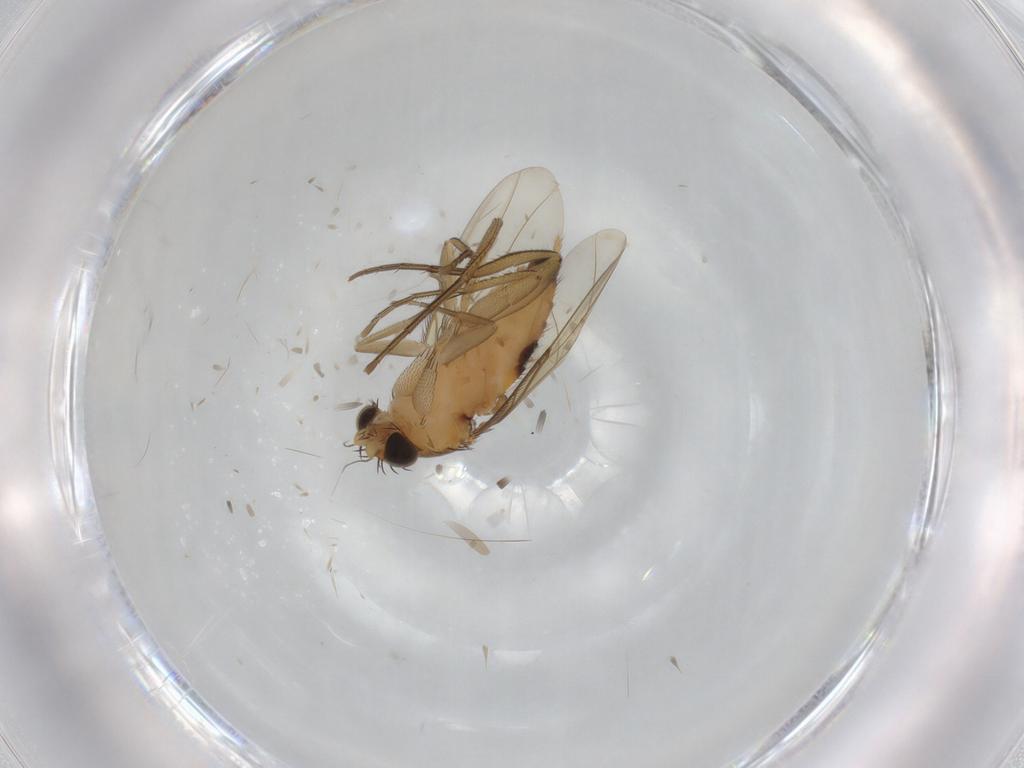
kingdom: Animalia
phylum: Arthropoda
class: Insecta
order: Diptera
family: Phoridae
